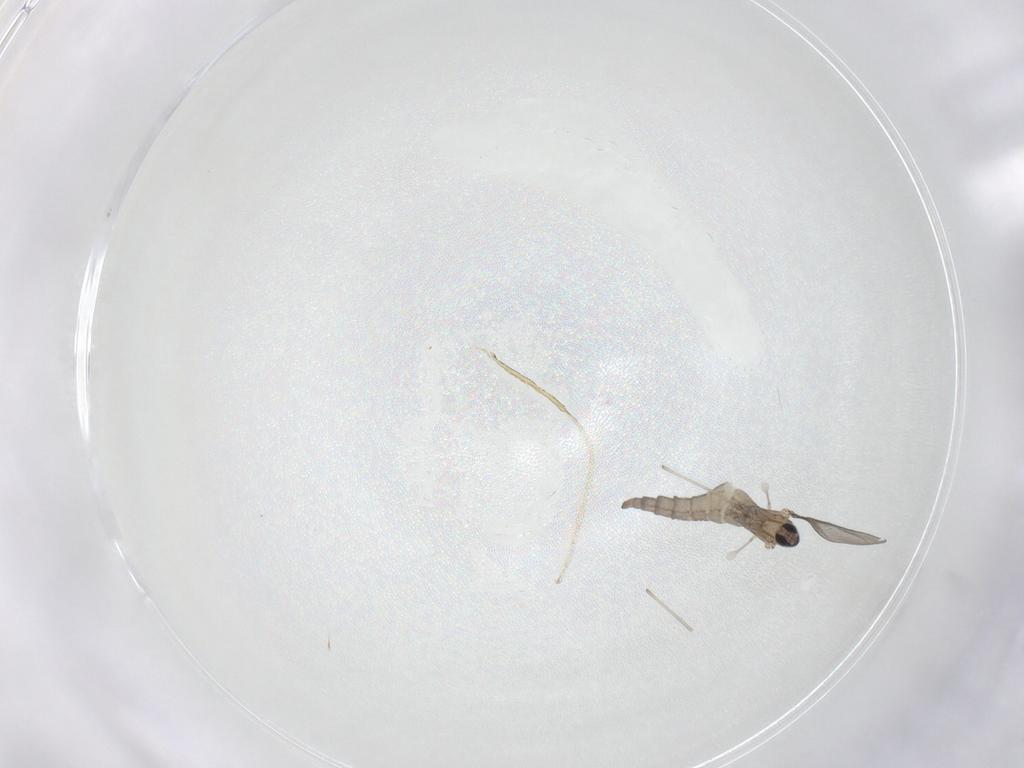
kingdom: Animalia
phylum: Arthropoda
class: Insecta
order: Diptera
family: Cecidomyiidae
